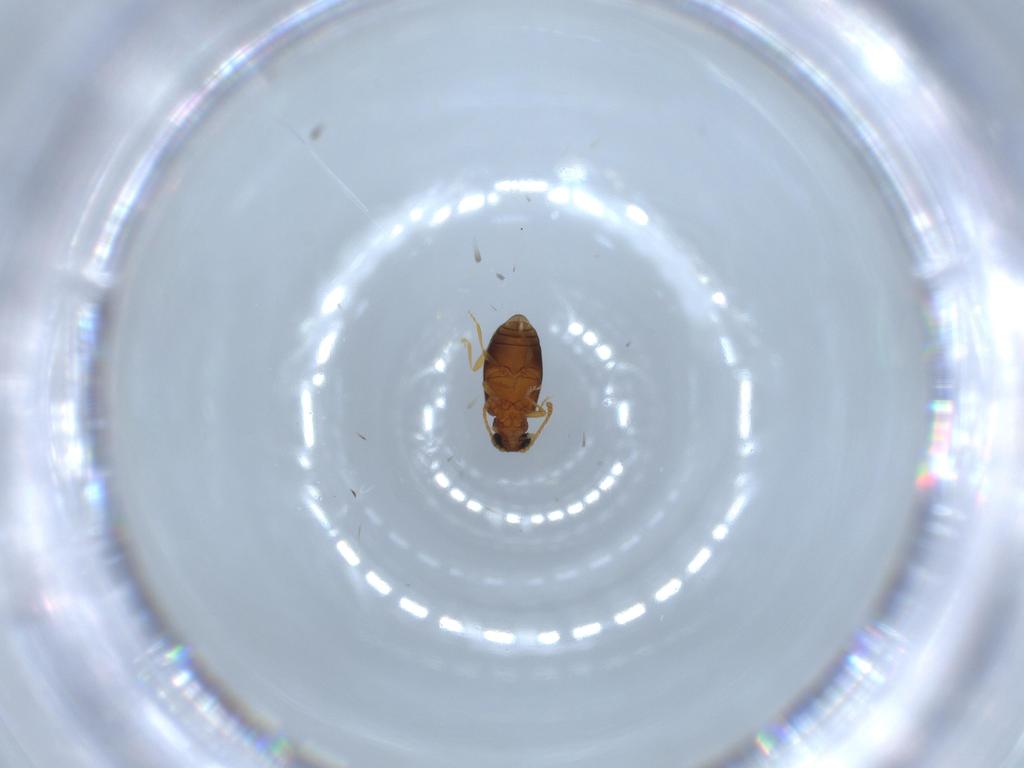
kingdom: Animalia
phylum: Arthropoda
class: Insecta
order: Coleoptera
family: Aderidae
